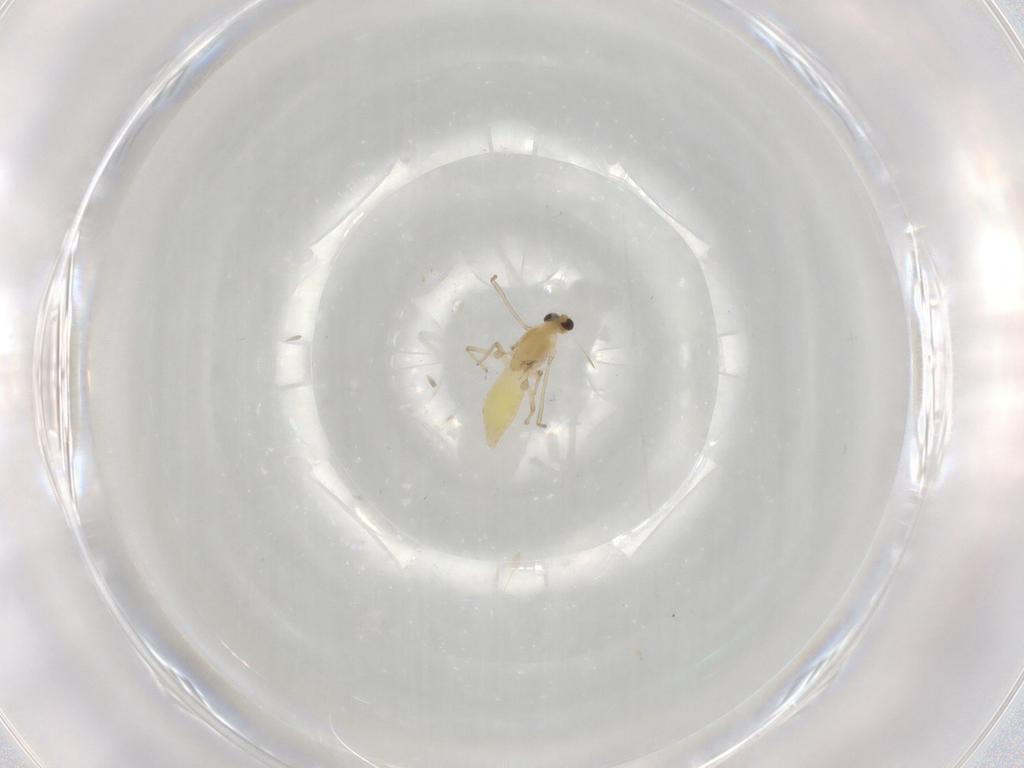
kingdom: Animalia
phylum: Arthropoda
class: Insecta
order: Diptera
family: Chironomidae
